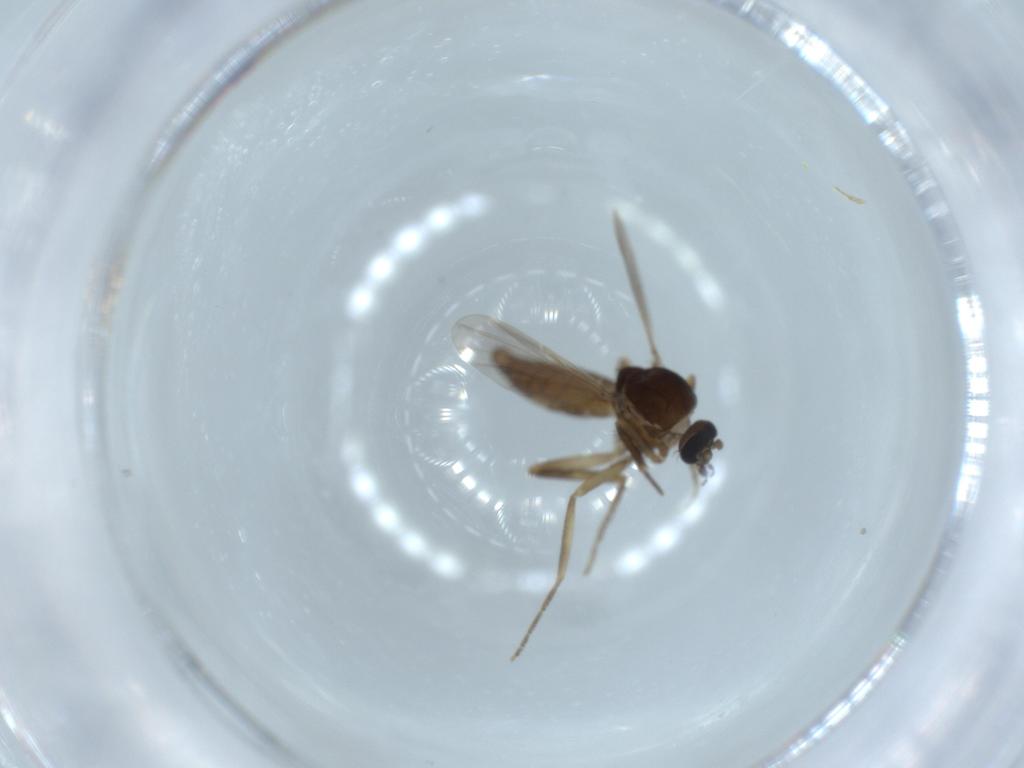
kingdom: Animalia
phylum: Arthropoda
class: Insecta
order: Diptera
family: Ceratopogonidae
